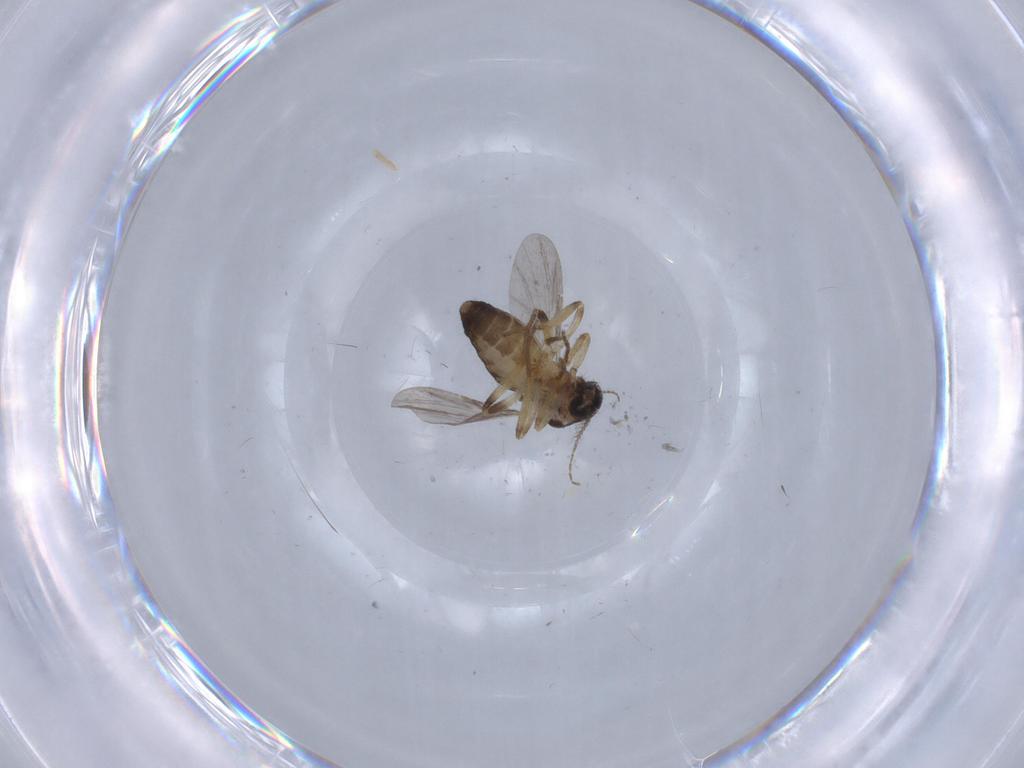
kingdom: Animalia
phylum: Arthropoda
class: Insecta
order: Diptera
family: Ceratopogonidae
